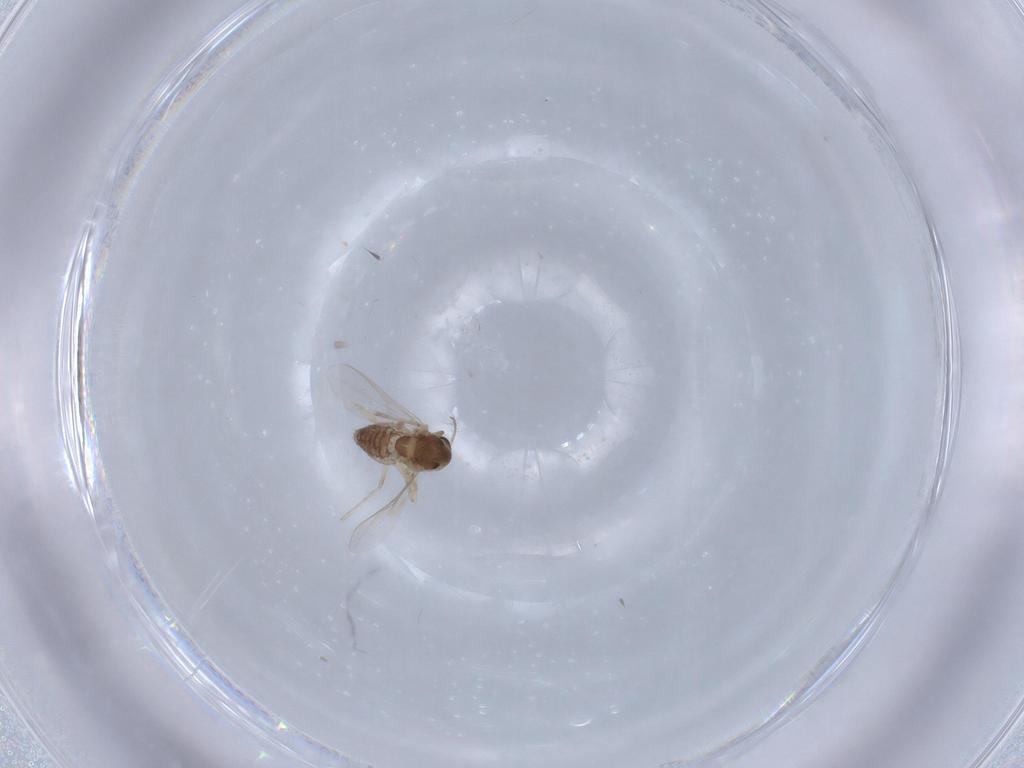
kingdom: Animalia
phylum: Arthropoda
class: Insecta
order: Diptera
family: Chironomidae
